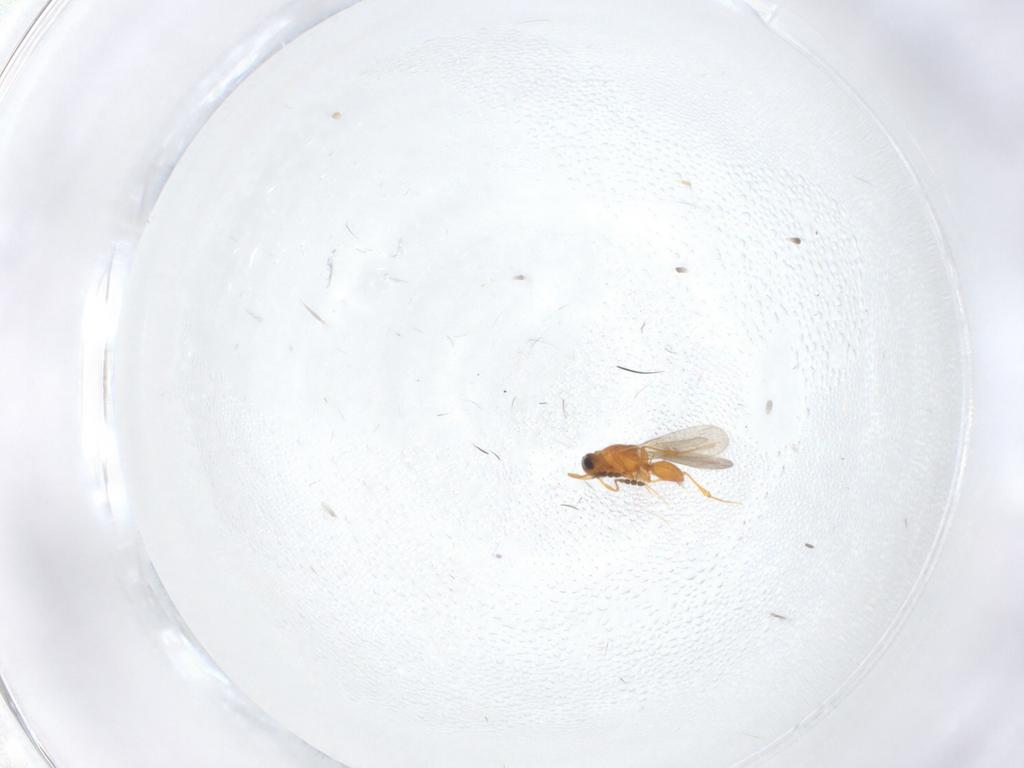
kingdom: Animalia
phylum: Arthropoda
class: Insecta
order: Hymenoptera
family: Platygastridae
